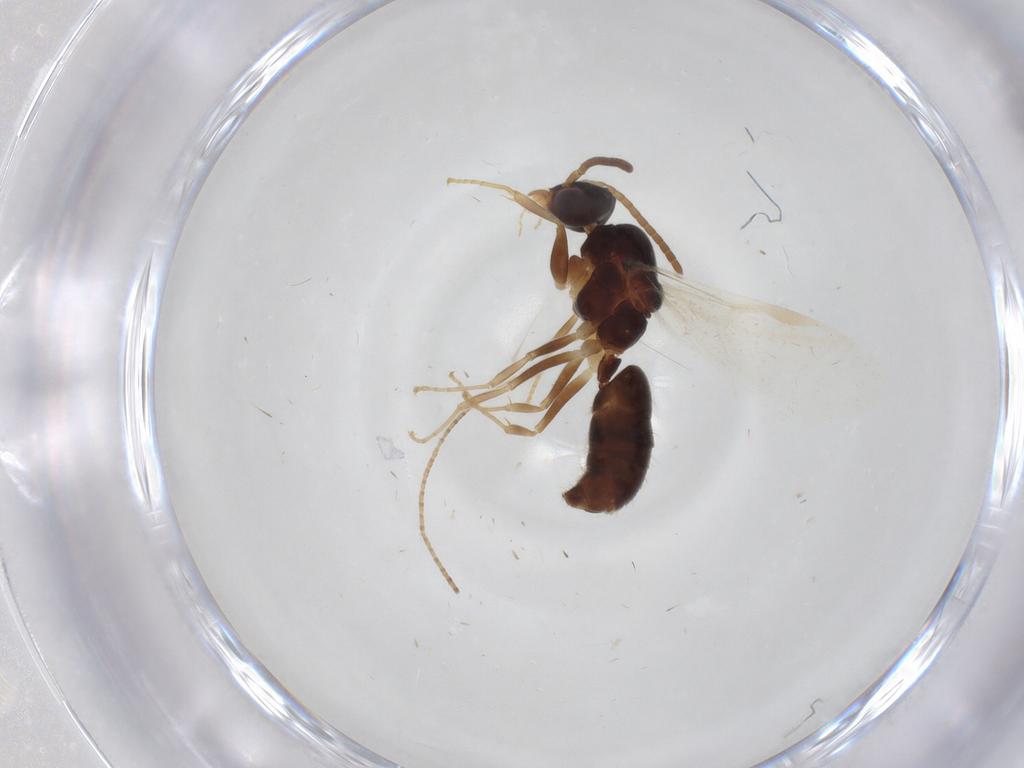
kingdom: Animalia
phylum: Arthropoda
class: Insecta
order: Hymenoptera
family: Formicidae
